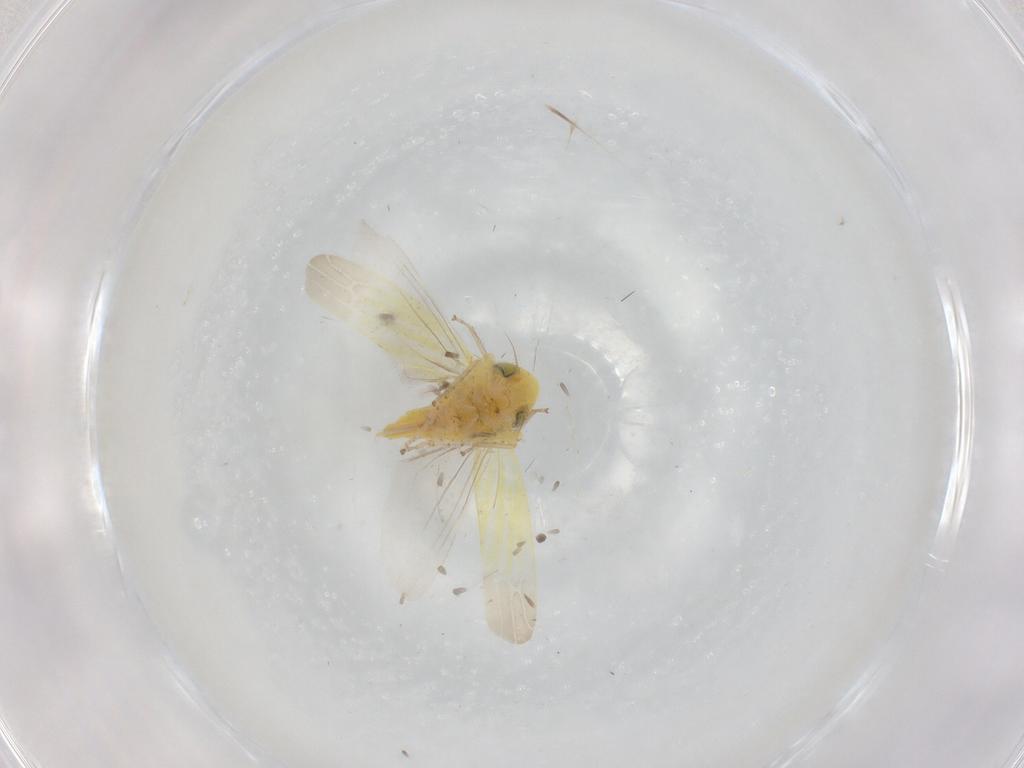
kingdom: Animalia
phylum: Arthropoda
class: Insecta
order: Hemiptera
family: Cicadellidae
